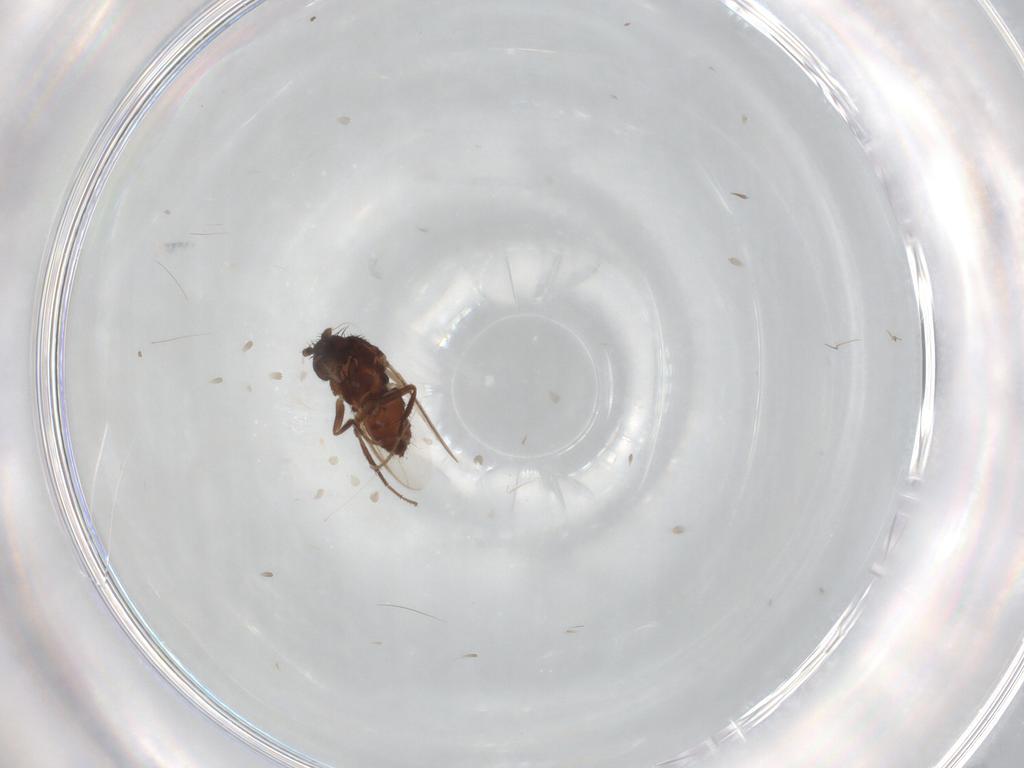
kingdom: Animalia
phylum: Arthropoda
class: Insecta
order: Diptera
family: Sphaeroceridae
